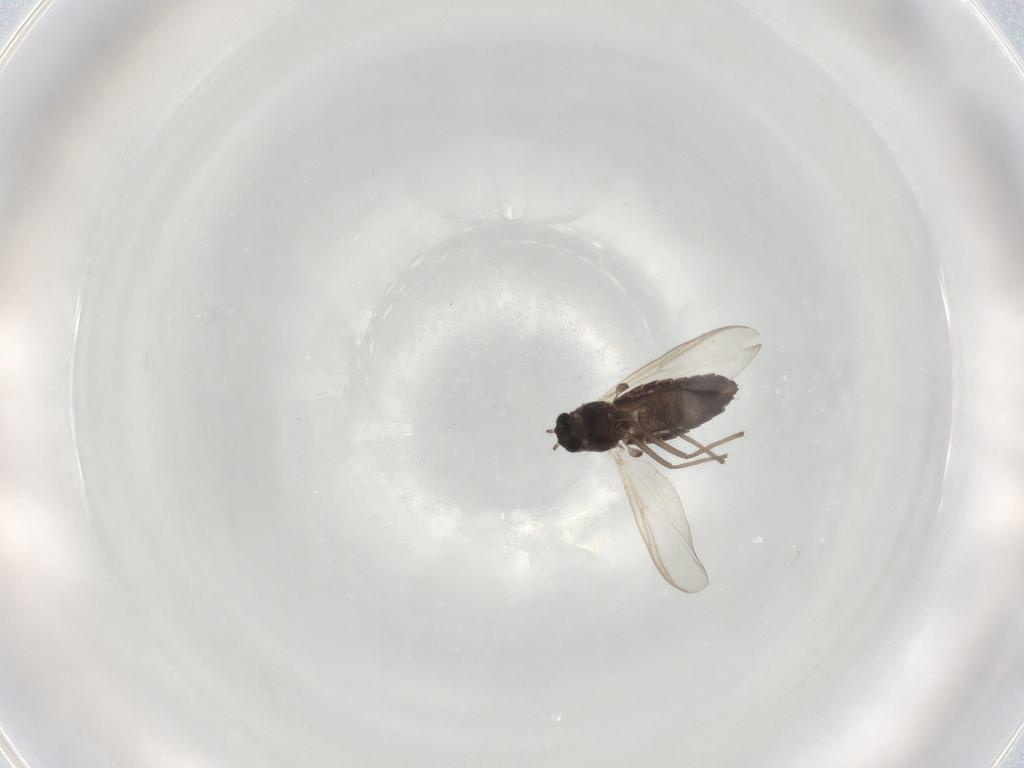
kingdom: Animalia
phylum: Arthropoda
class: Insecta
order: Diptera
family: Chironomidae
